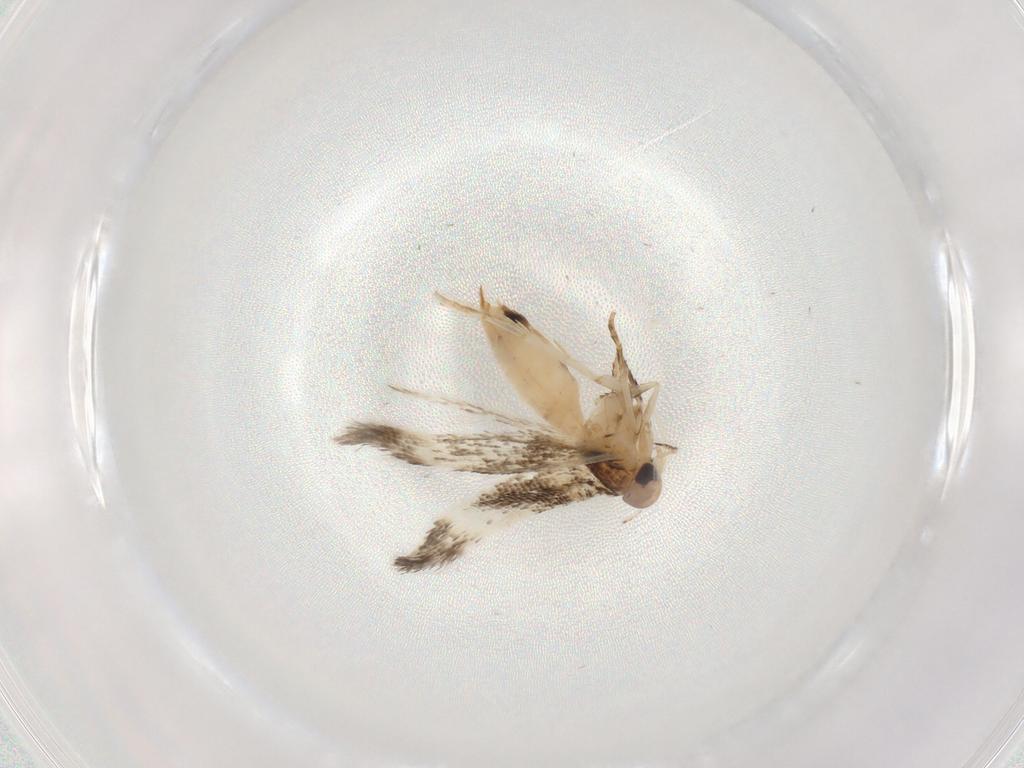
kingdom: Animalia
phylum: Arthropoda
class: Insecta
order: Lepidoptera
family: Cosmopterigidae
